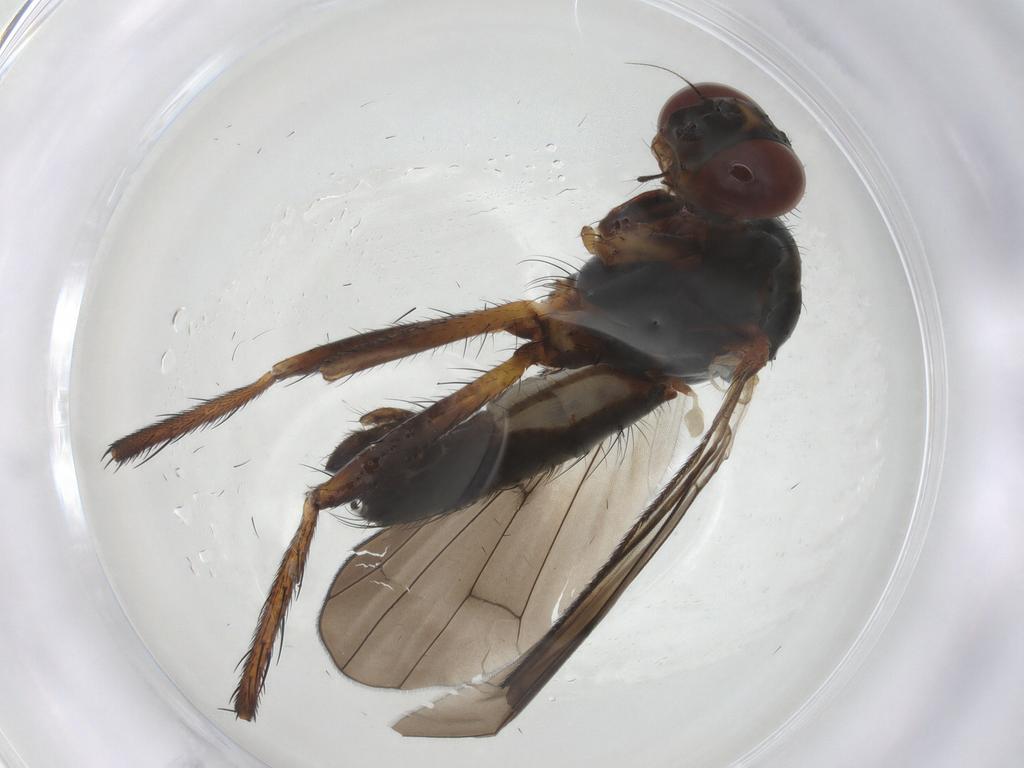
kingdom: Animalia
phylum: Arthropoda
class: Insecta
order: Diptera
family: Anthomyiidae
